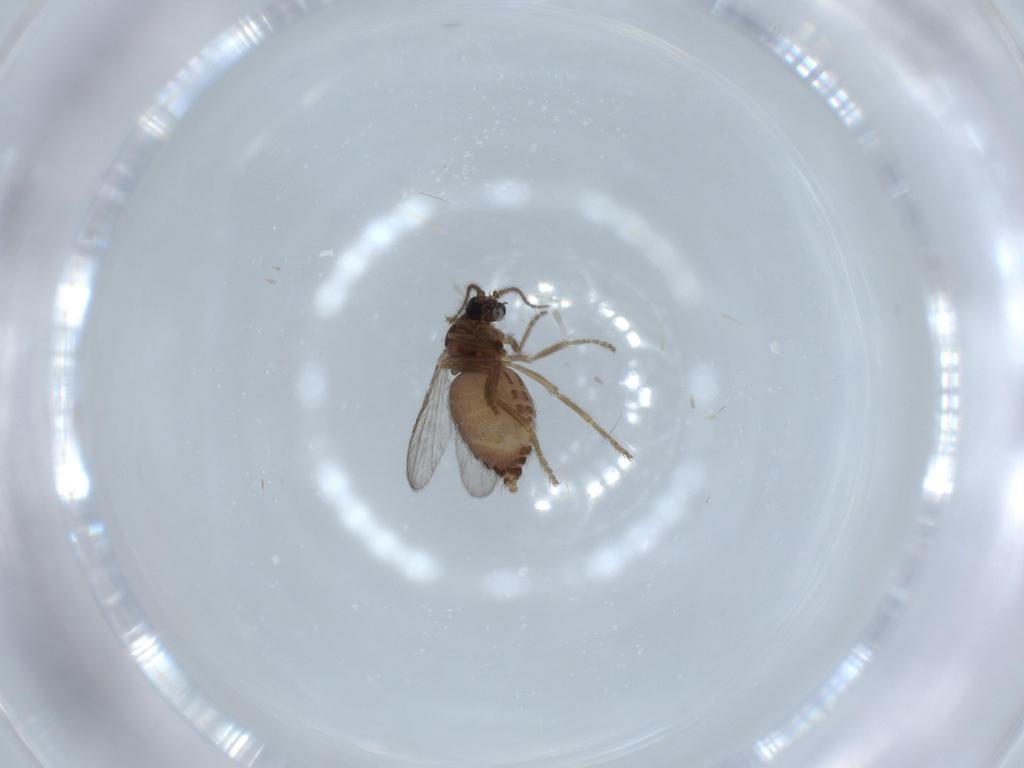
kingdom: Animalia
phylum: Arthropoda
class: Insecta
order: Diptera
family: Ceratopogonidae
